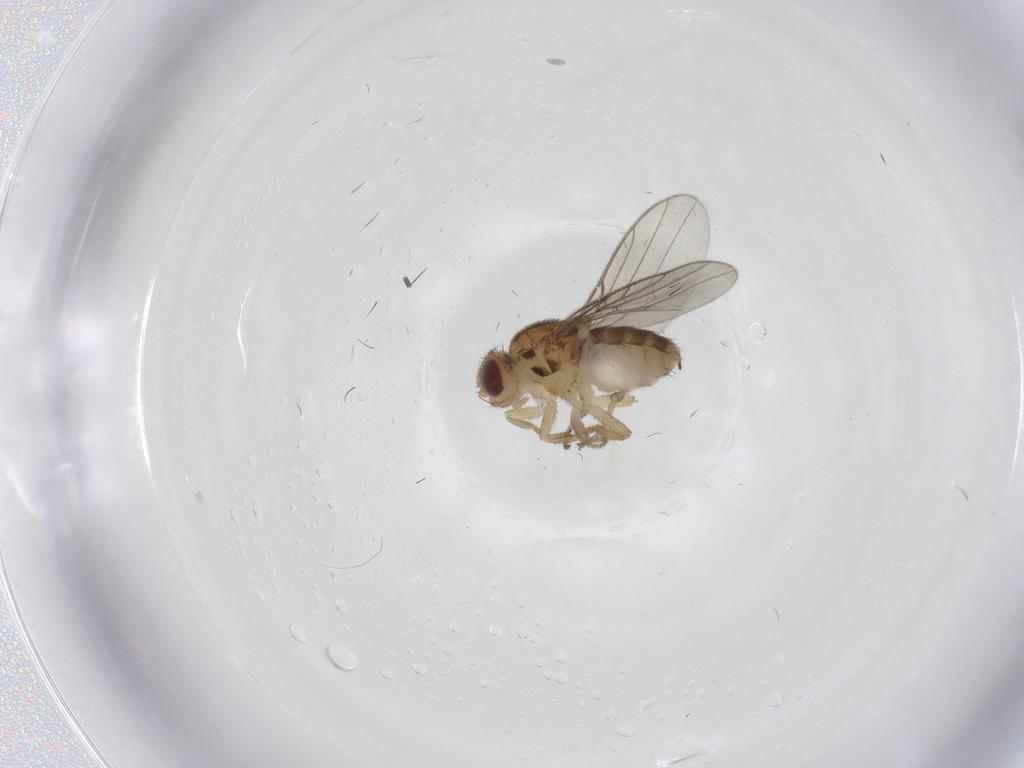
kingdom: Animalia
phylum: Arthropoda
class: Insecta
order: Diptera
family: Chloropidae
